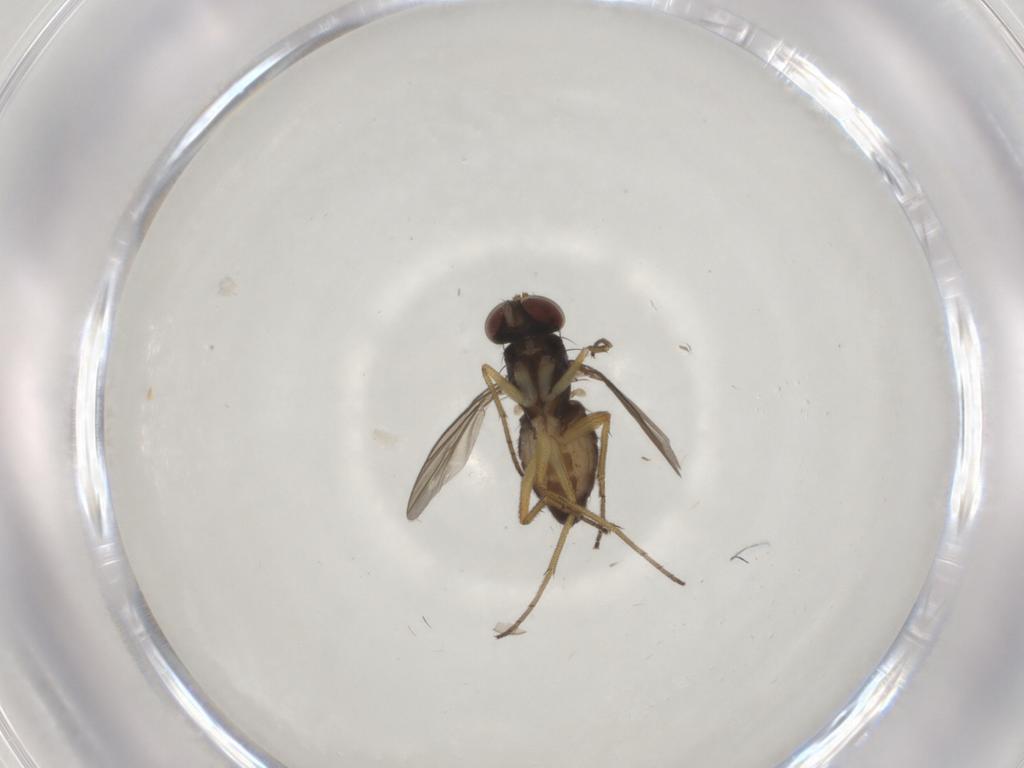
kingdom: Animalia
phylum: Arthropoda
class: Insecta
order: Diptera
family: Dolichopodidae
